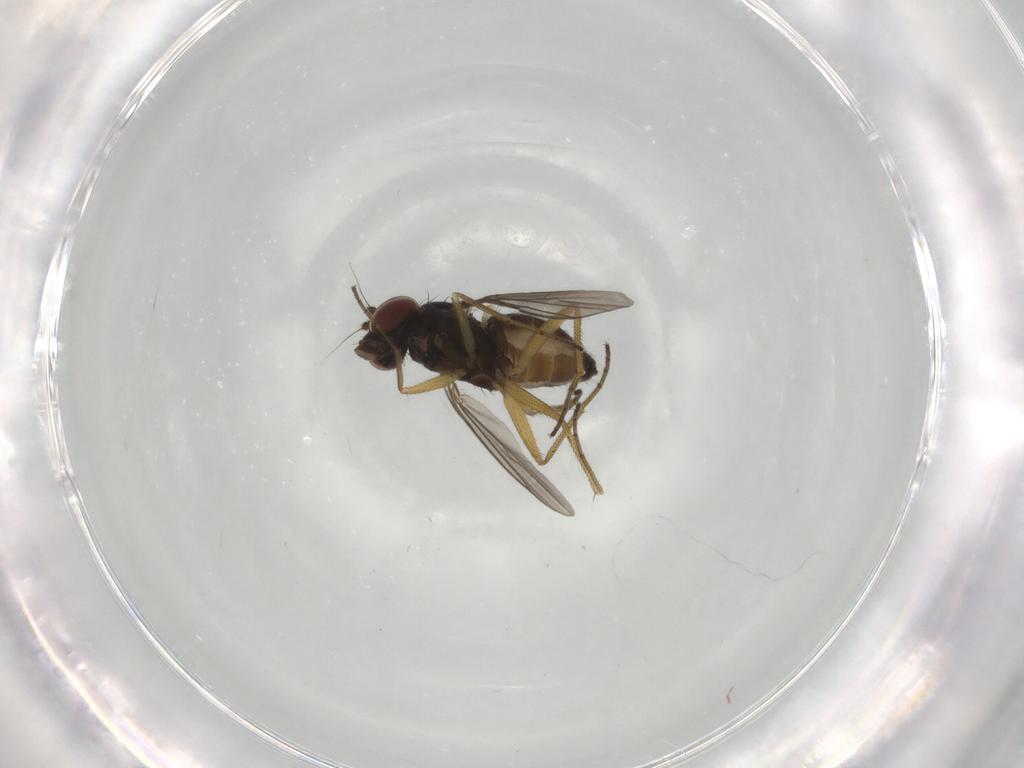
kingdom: Animalia
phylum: Arthropoda
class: Insecta
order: Diptera
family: Dolichopodidae
